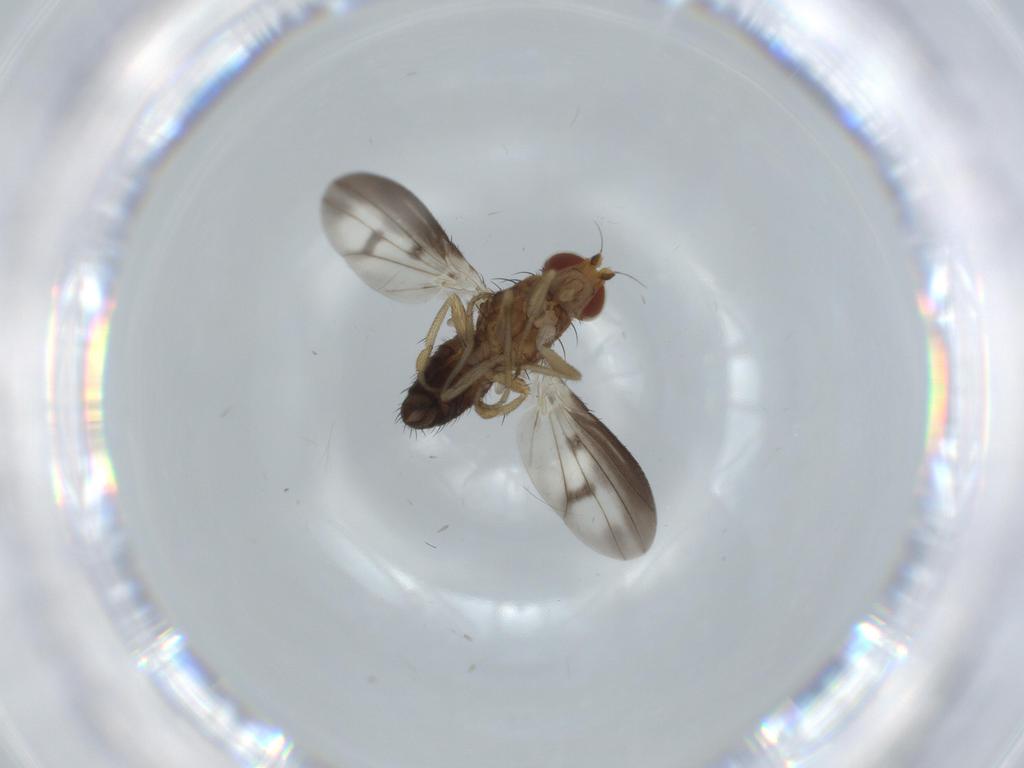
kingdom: Animalia
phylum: Arthropoda
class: Insecta
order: Diptera
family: Heleomyzidae
